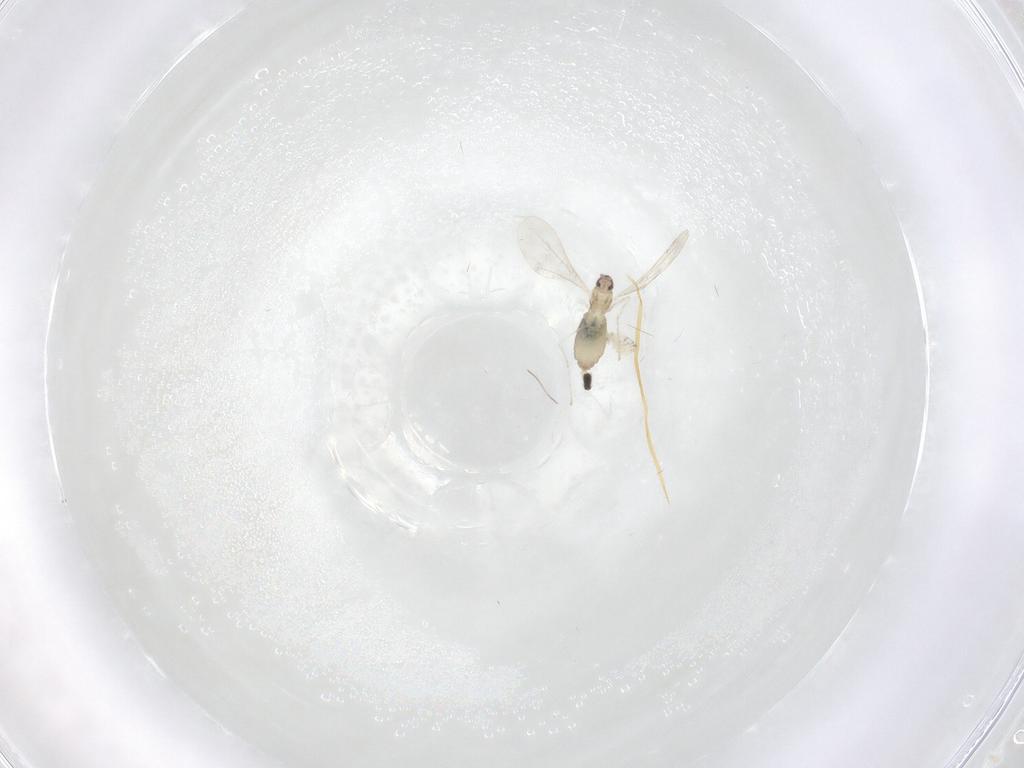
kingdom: Animalia
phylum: Arthropoda
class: Insecta
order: Diptera
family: Cecidomyiidae
